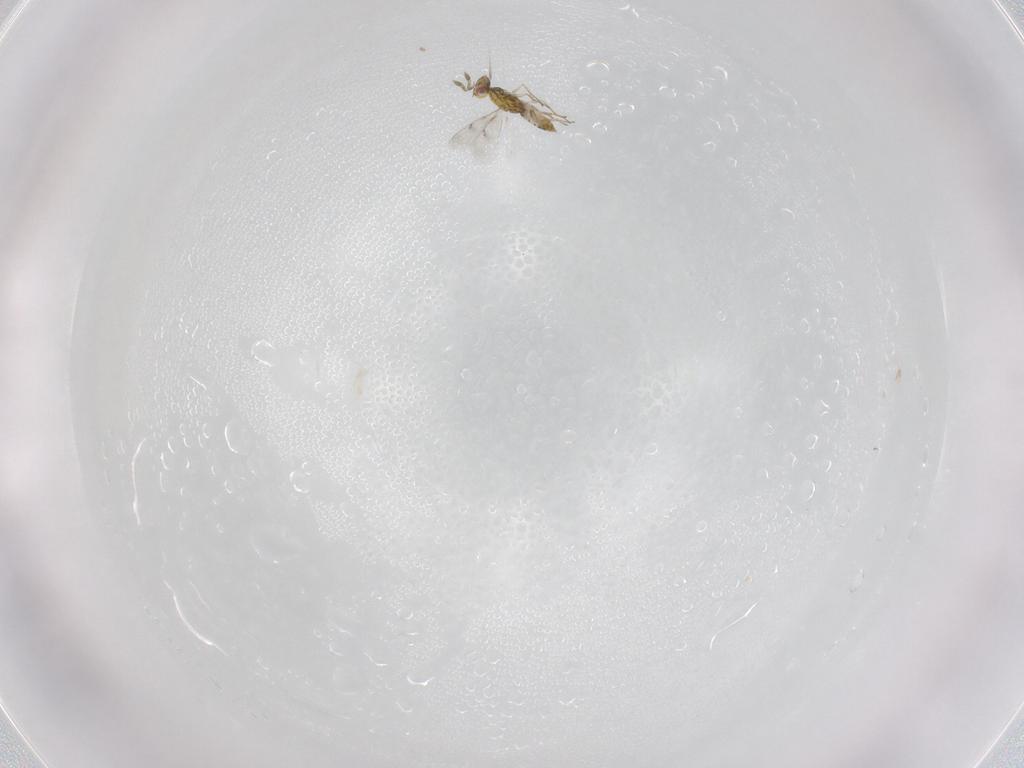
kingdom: Animalia
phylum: Arthropoda
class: Insecta
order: Hymenoptera
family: Eulophidae
